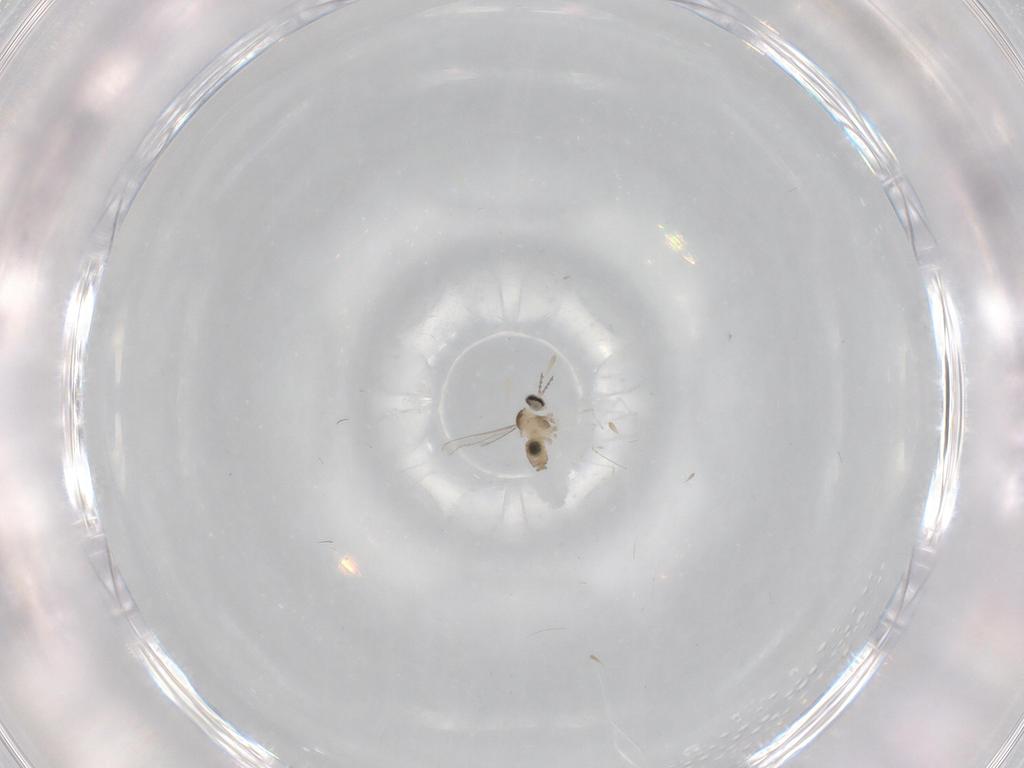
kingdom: Animalia
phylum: Arthropoda
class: Insecta
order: Diptera
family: Cecidomyiidae
